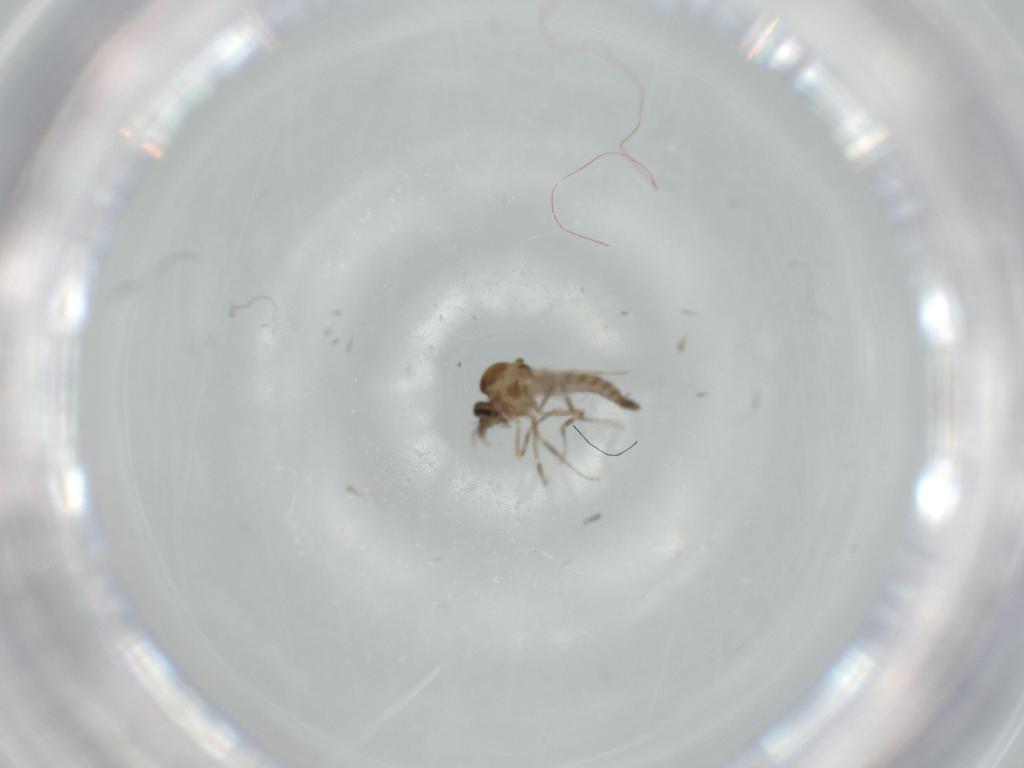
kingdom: Animalia
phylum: Arthropoda
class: Insecta
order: Diptera
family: Ceratopogonidae
